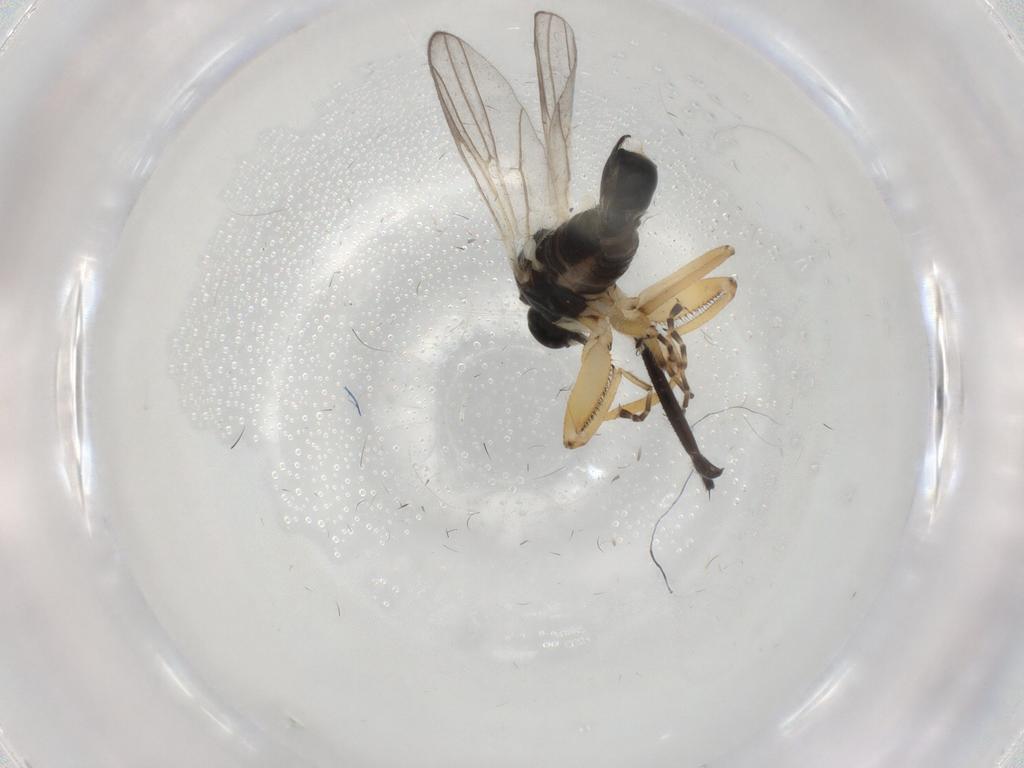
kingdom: Animalia
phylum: Arthropoda
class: Insecta
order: Diptera
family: Chironomidae
